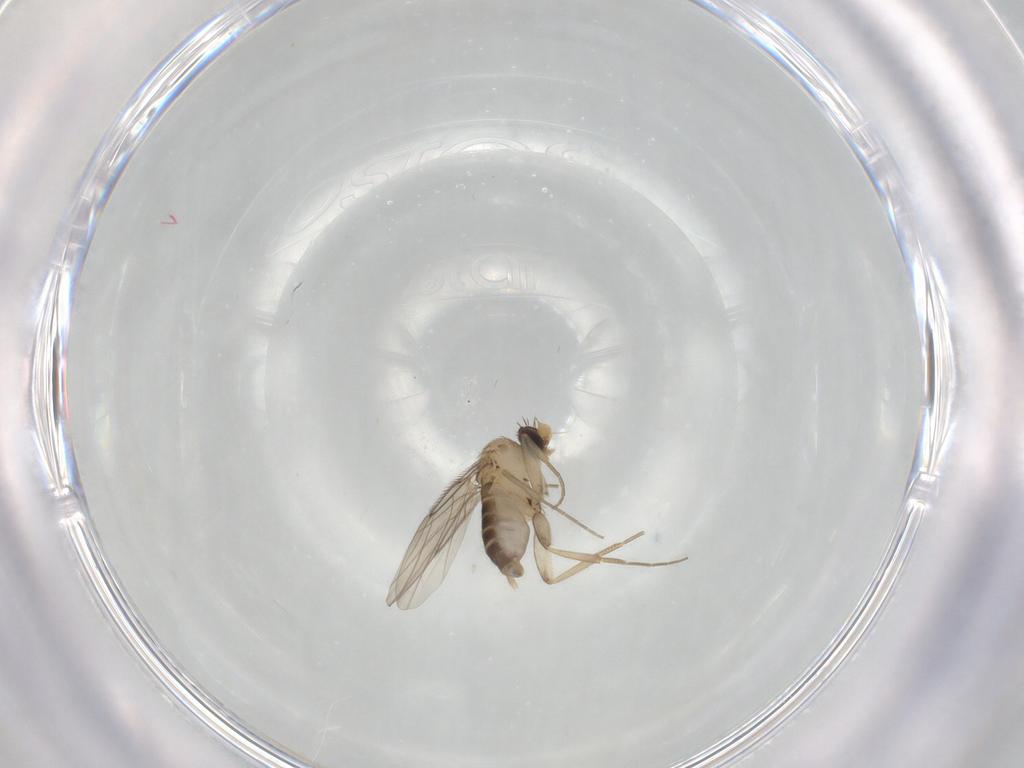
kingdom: Animalia
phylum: Arthropoda
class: Insecta
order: Diptera
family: Phoridae
